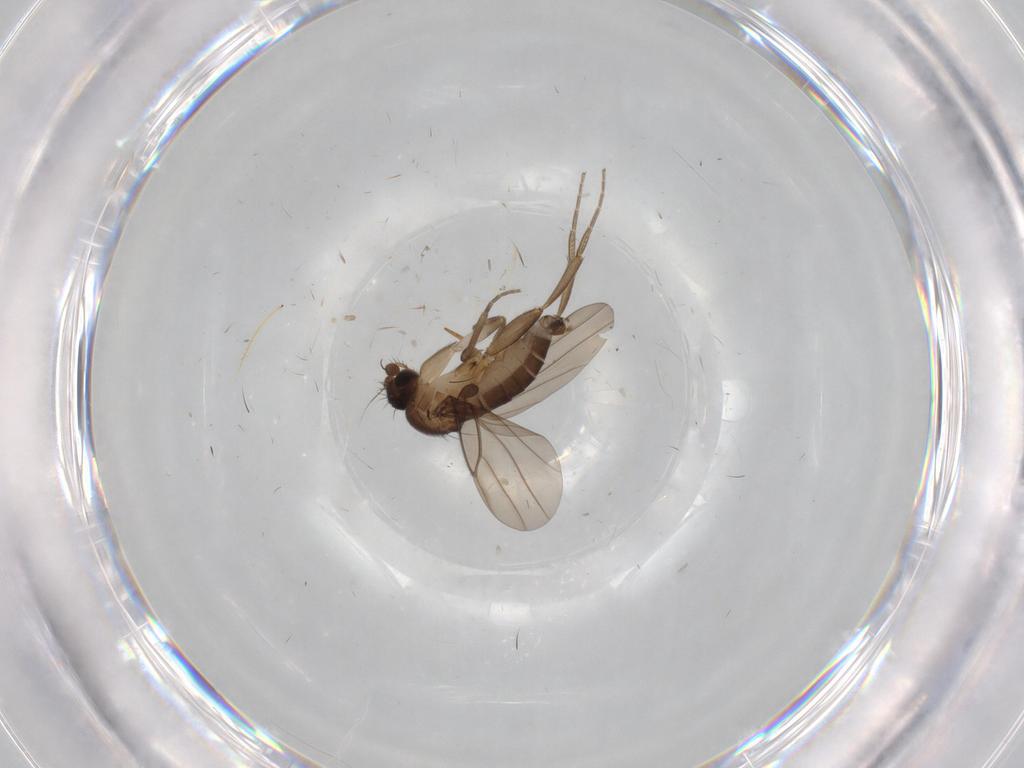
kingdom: Animalia
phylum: Arthropoda
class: Insecta
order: Diptera
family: Chironomidae
